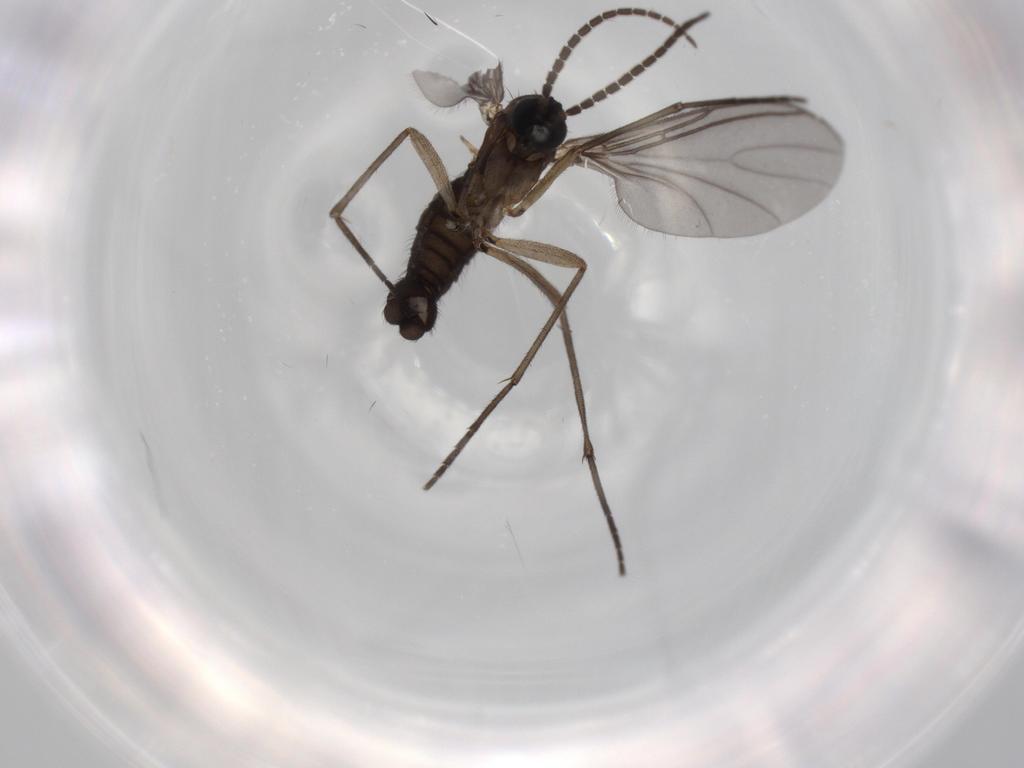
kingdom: Animalia
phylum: Arthropoda
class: Insecta
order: Diptera
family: Sciaridae
